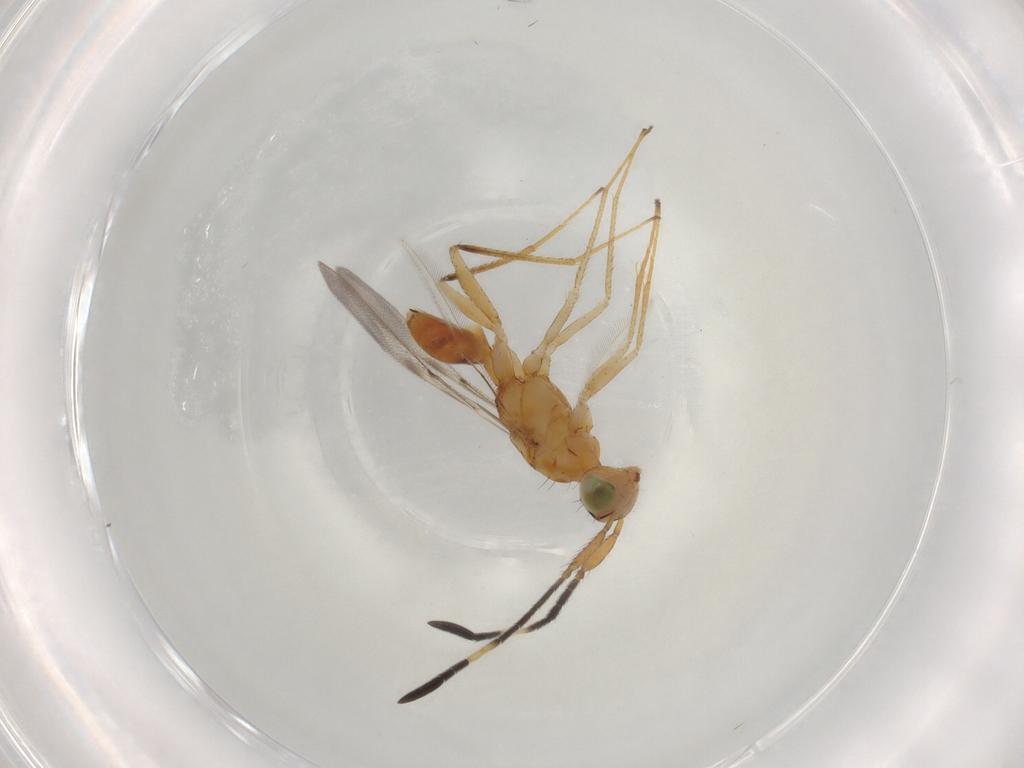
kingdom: Animalia
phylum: Arthropoda
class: Insecta
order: Hymenoptera
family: Mymaridae
